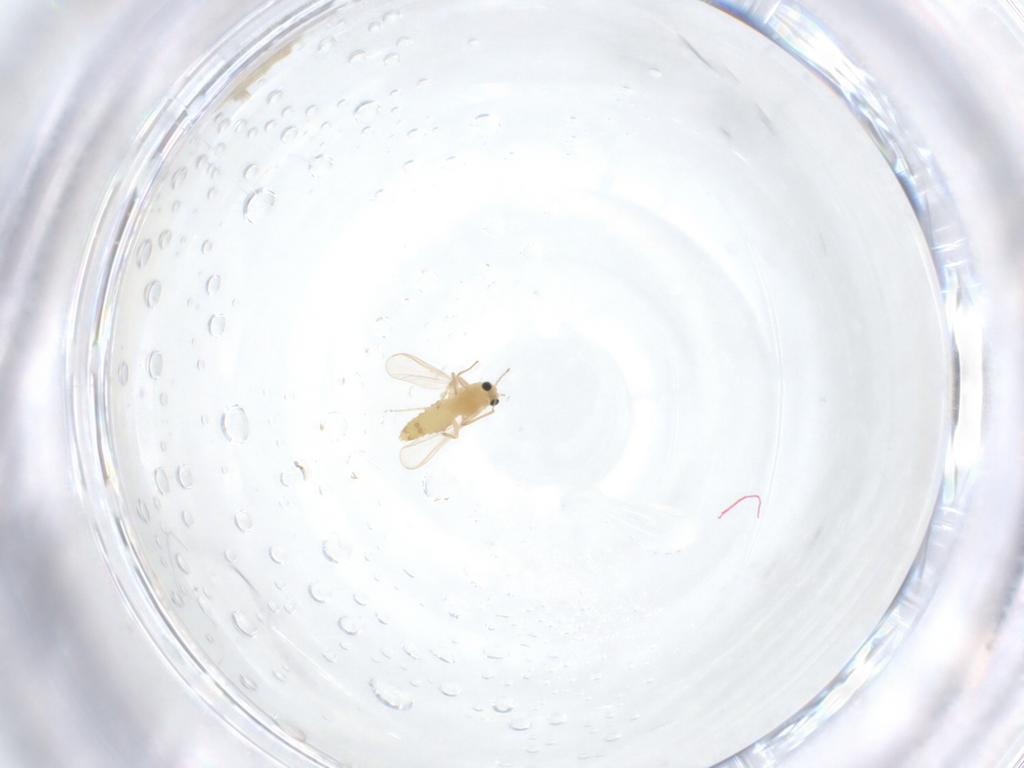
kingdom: Animalia
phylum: Arthropoda
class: Insecta
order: Diptera
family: Chironomidae
